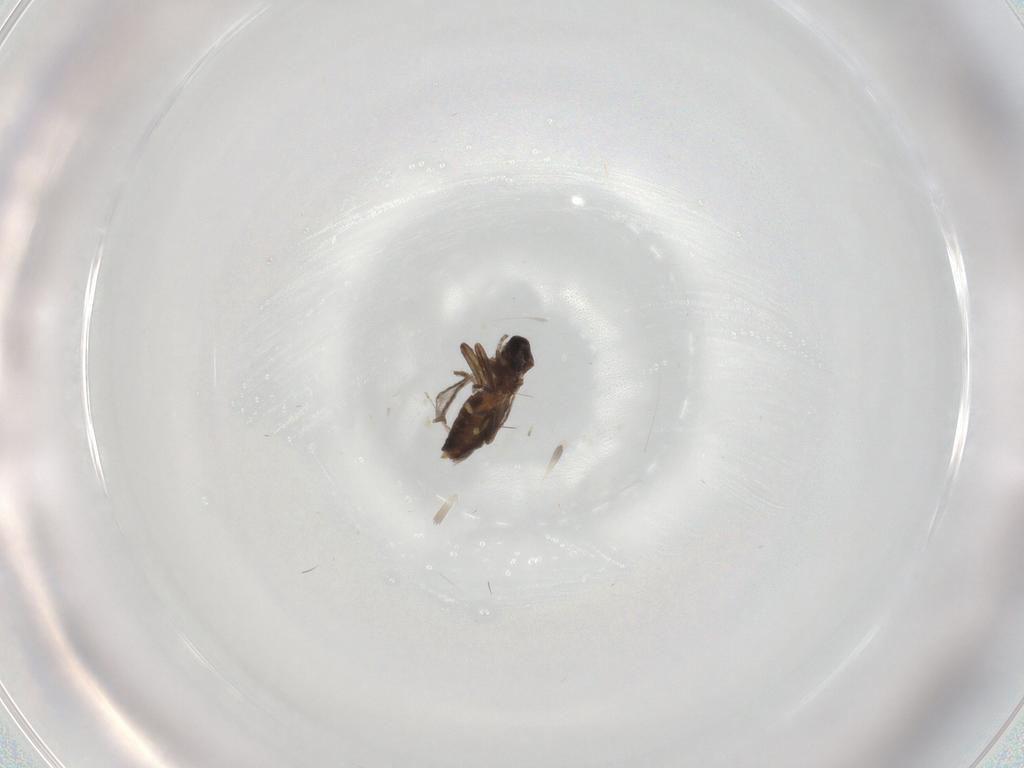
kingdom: Animalia
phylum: Arthropoda
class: Insecta
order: Diptera
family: Ceratopogonidae
